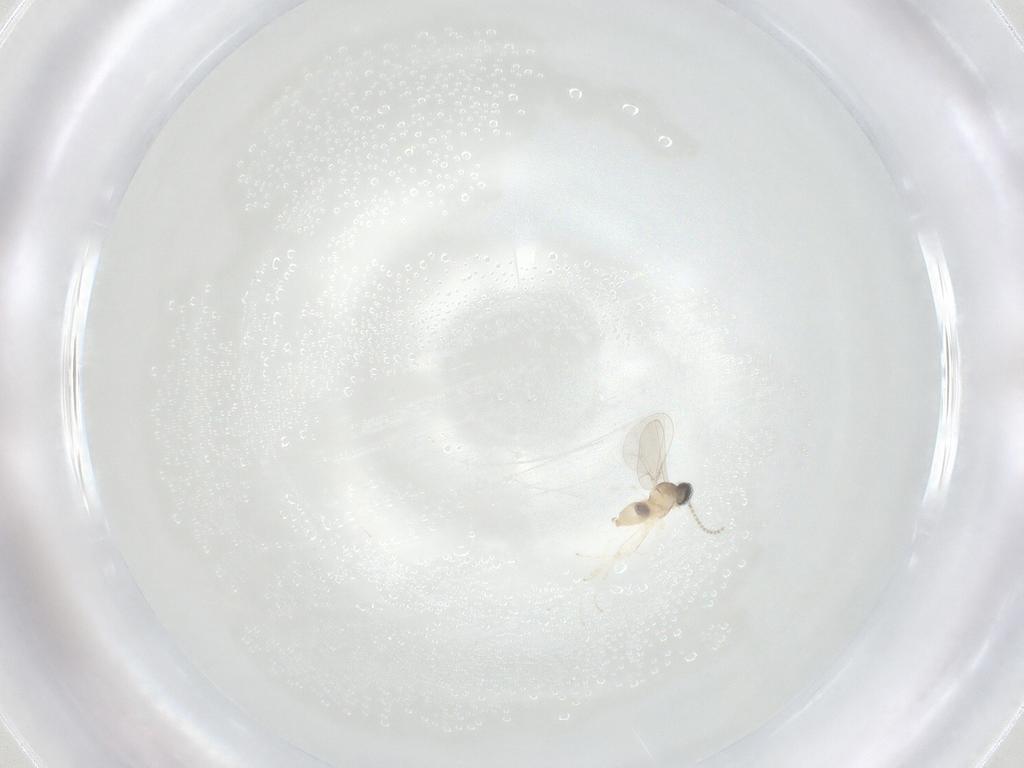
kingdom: Animalia
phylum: Arthropoda
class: Insecta
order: Diptera
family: Cecidomyiidae
